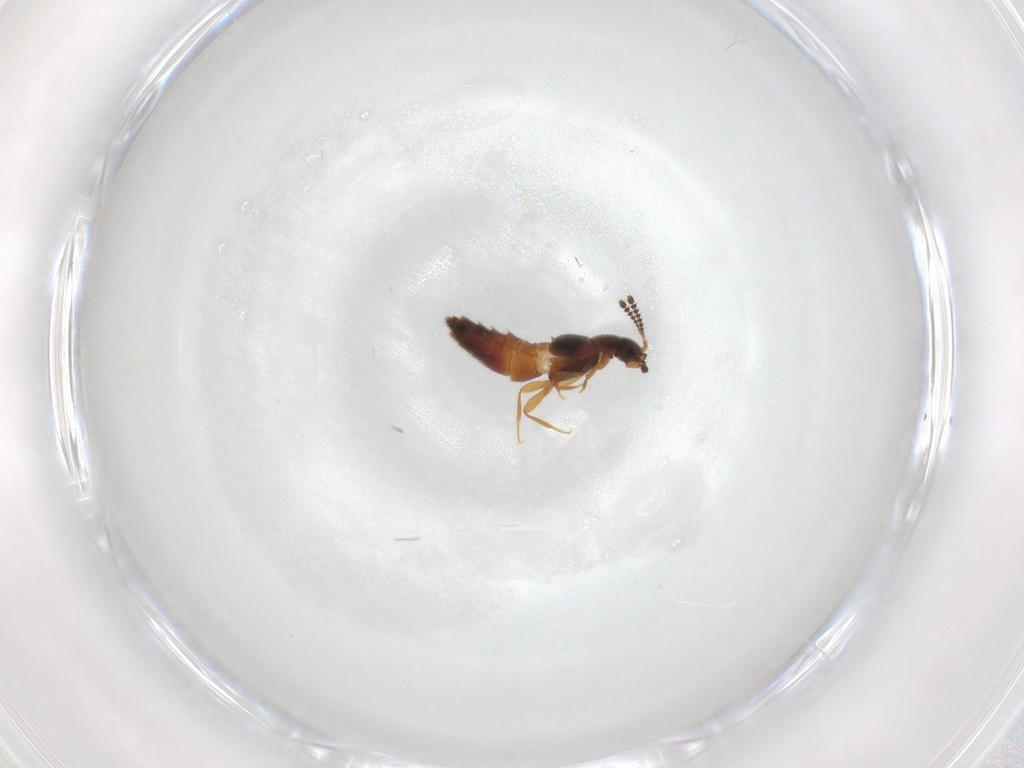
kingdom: Animalia
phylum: Arthropoda
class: Insecta
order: Coleoptera
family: Staphylinidae
